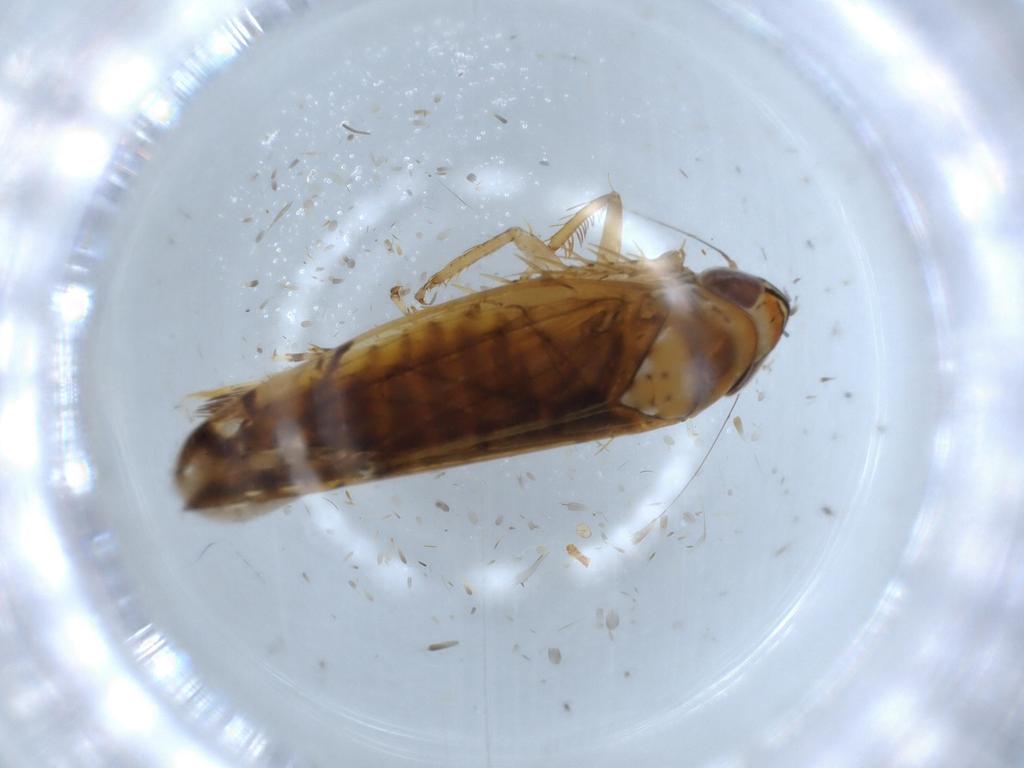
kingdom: Animalia
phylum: Arthropoda
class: Insecta
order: Hemiptera
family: Cicadellidae
